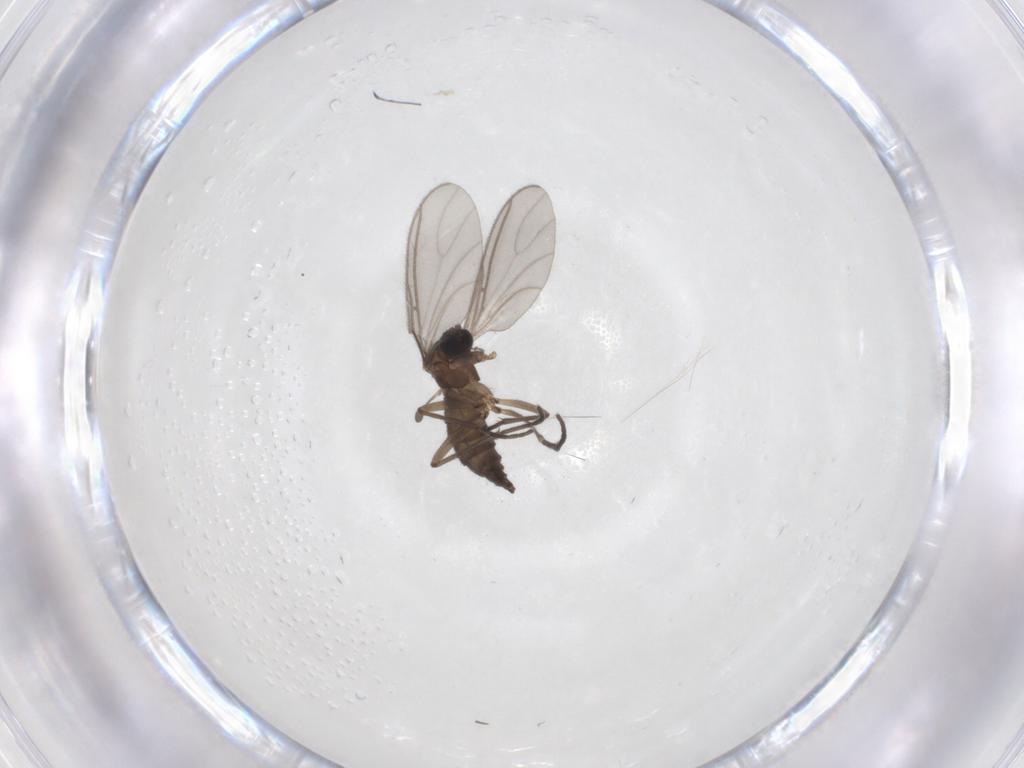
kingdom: Animalia
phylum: Arthropoda
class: Insecta
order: Diptera
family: Sciaridae
